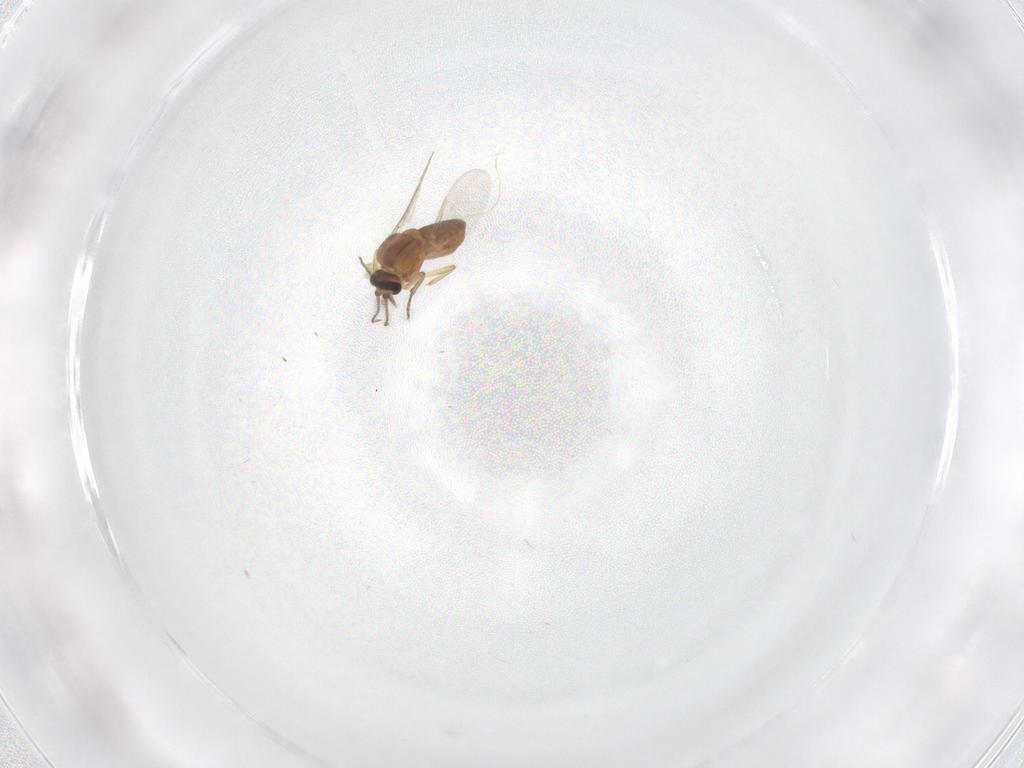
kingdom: Animalia
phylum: Arthropoda
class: Insecta
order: Diptera
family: Ceratopogonidae
